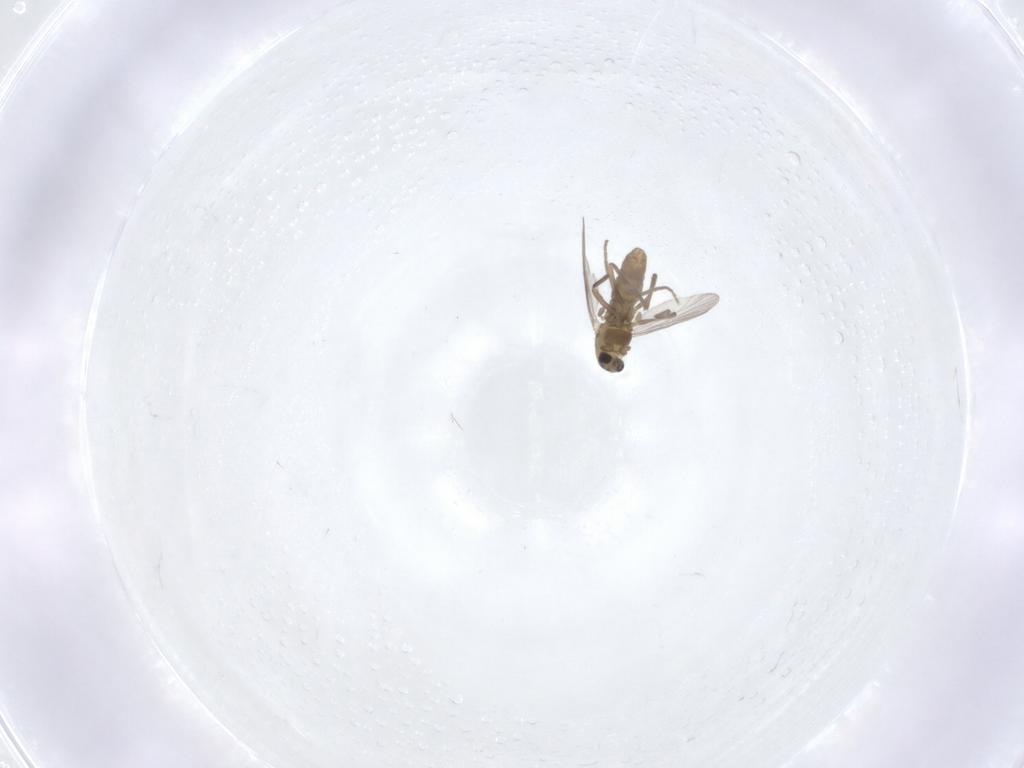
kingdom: Animalia
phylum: Arthropoda
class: Insecta
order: Diptera
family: Chironomidae
